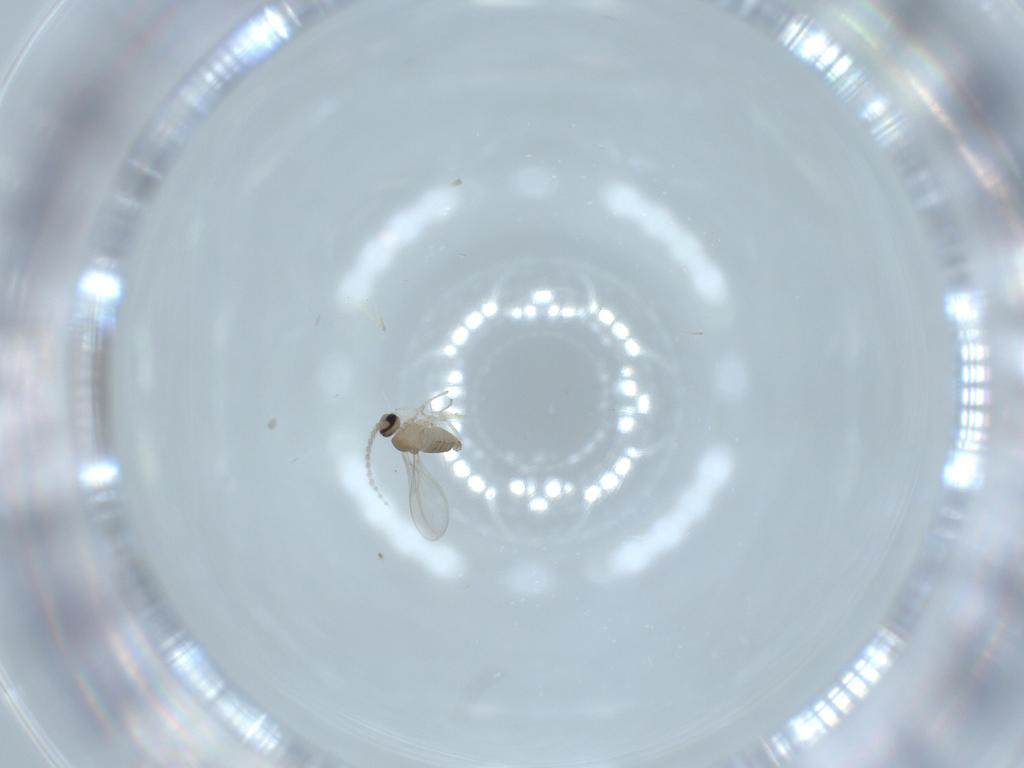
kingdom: Animalia
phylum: Arthropoda
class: Insecta
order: Diptera
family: Cecidomyiidae
